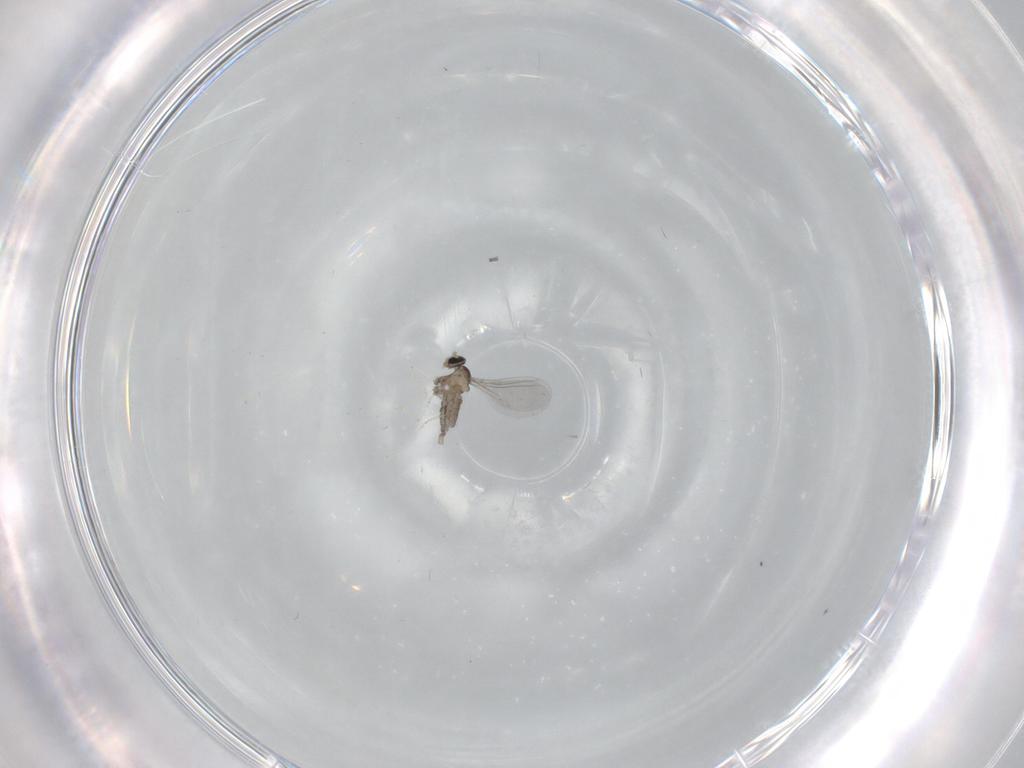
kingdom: Animalia
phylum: Arthropoda
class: Insecta
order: Diptera
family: Cecidomyiidae
